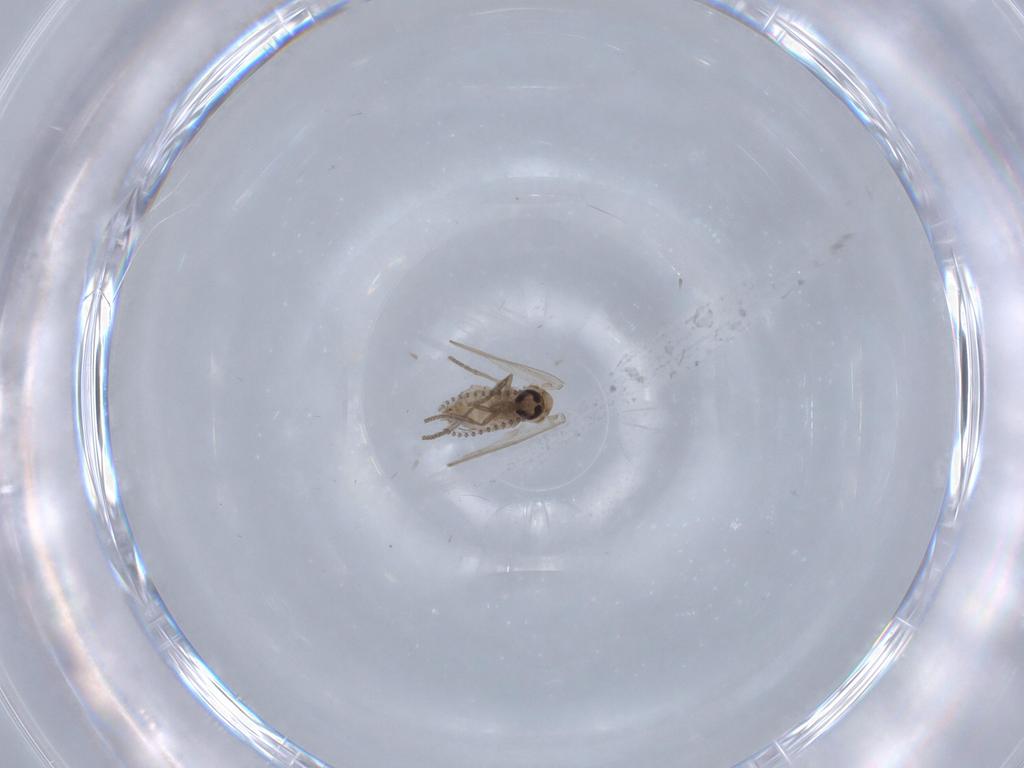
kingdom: Animalia
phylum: Arthropoda
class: Insecta
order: Diptera
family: Psychodidae
